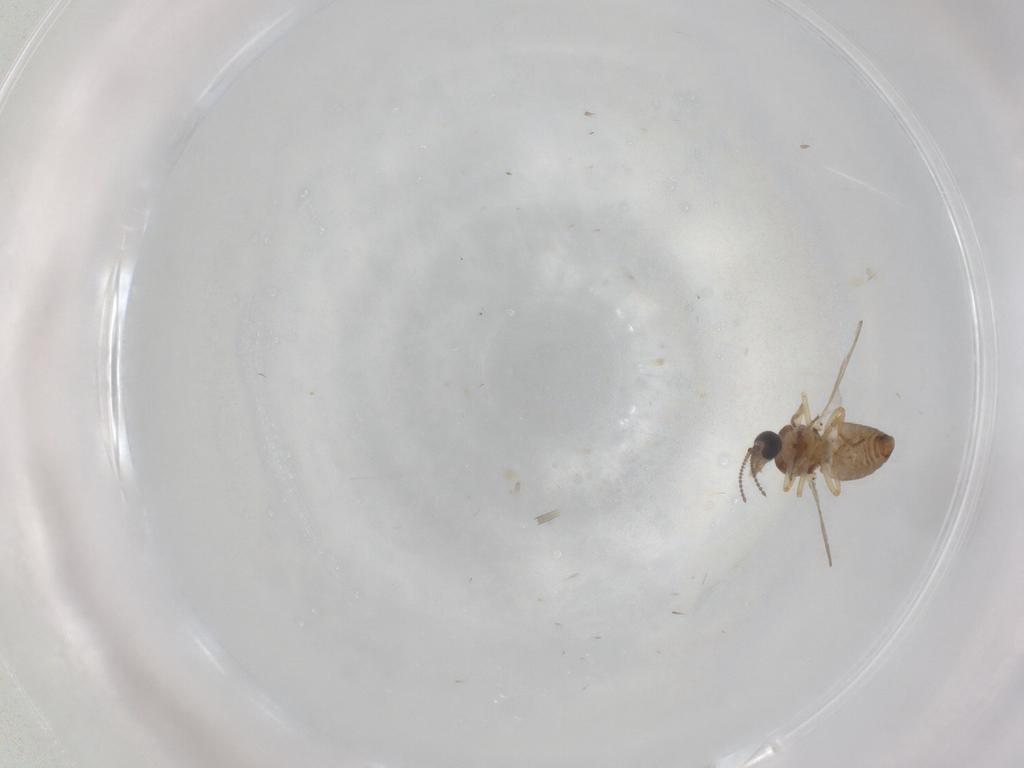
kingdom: Animalia
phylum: Arthropoda
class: Insecta
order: Diptera
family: Ceratopogonidae
